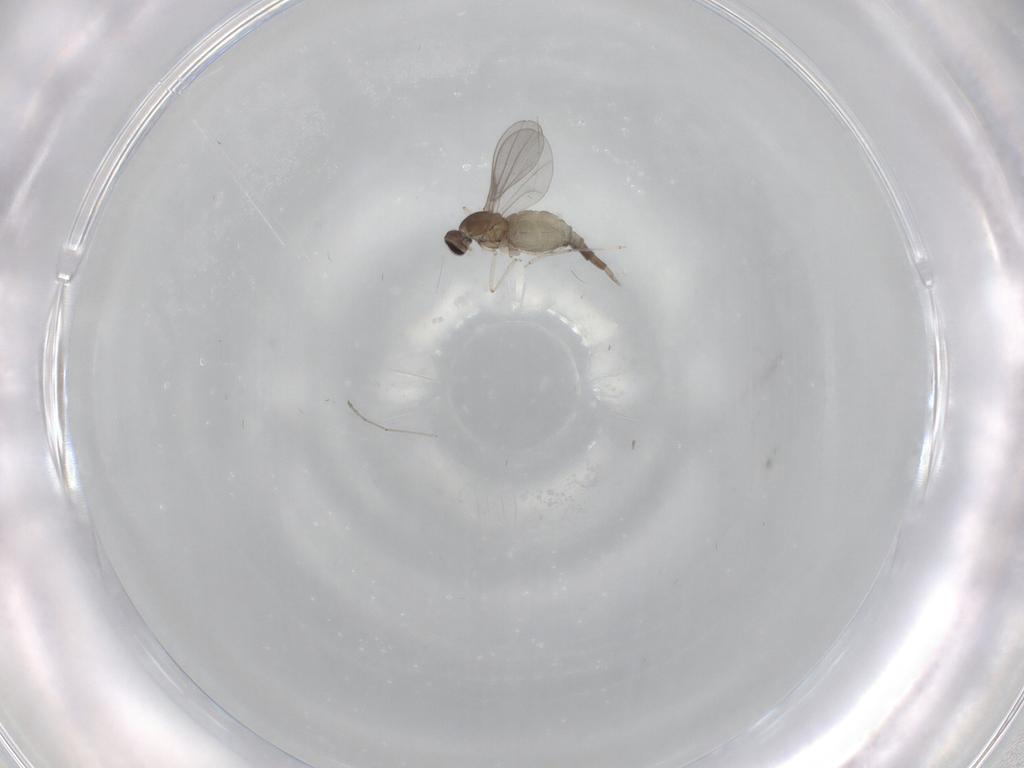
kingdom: Animalia
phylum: Arthropoda
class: Insecta
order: Diptera
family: Cecidomyiidae
